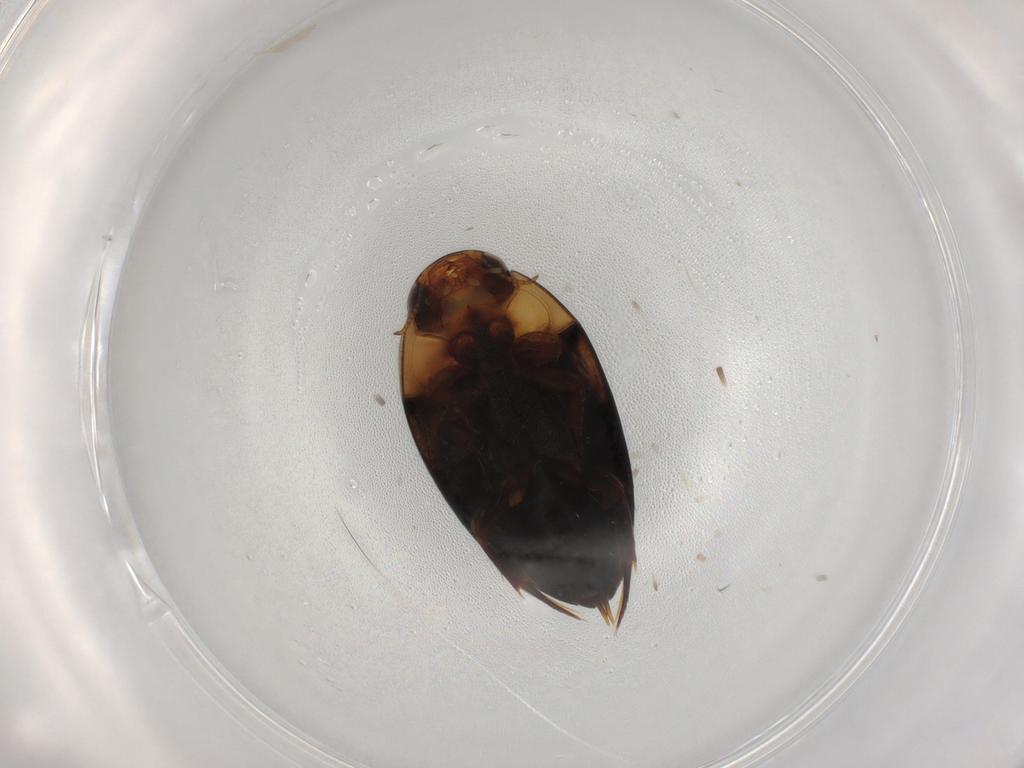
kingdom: Animalia
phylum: Arthropoda
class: Insecta
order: Coleoptera
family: Noteridae
